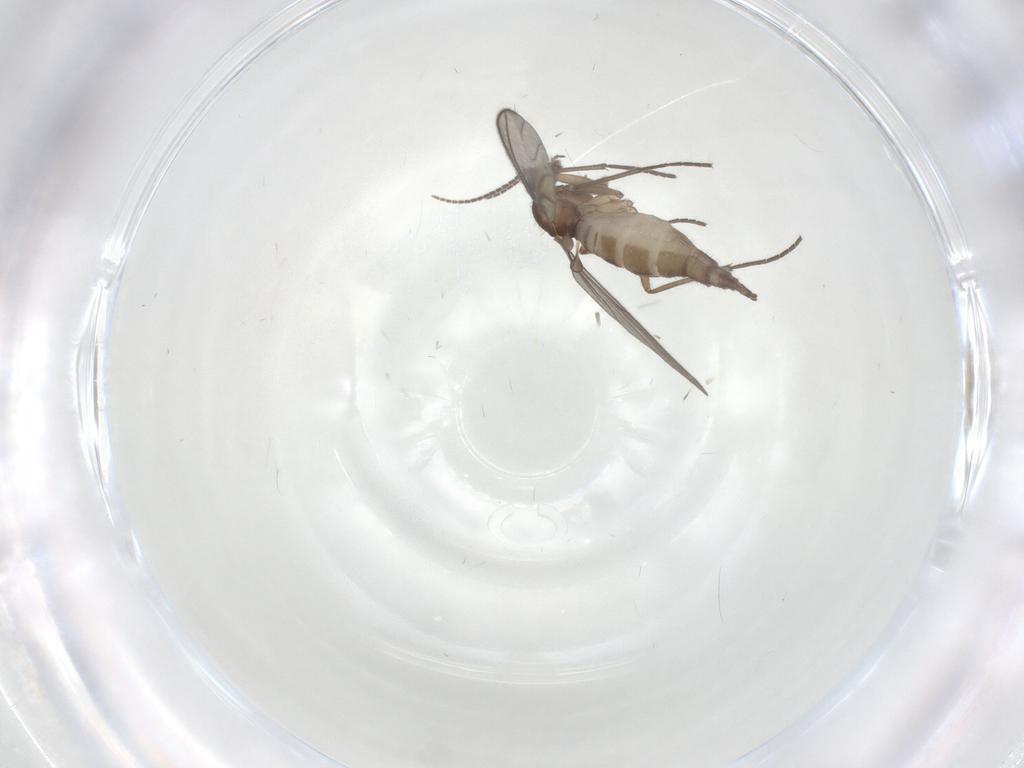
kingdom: Animalia
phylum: Arthropoda
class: Insecta
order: Diptera
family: Sciaridae
